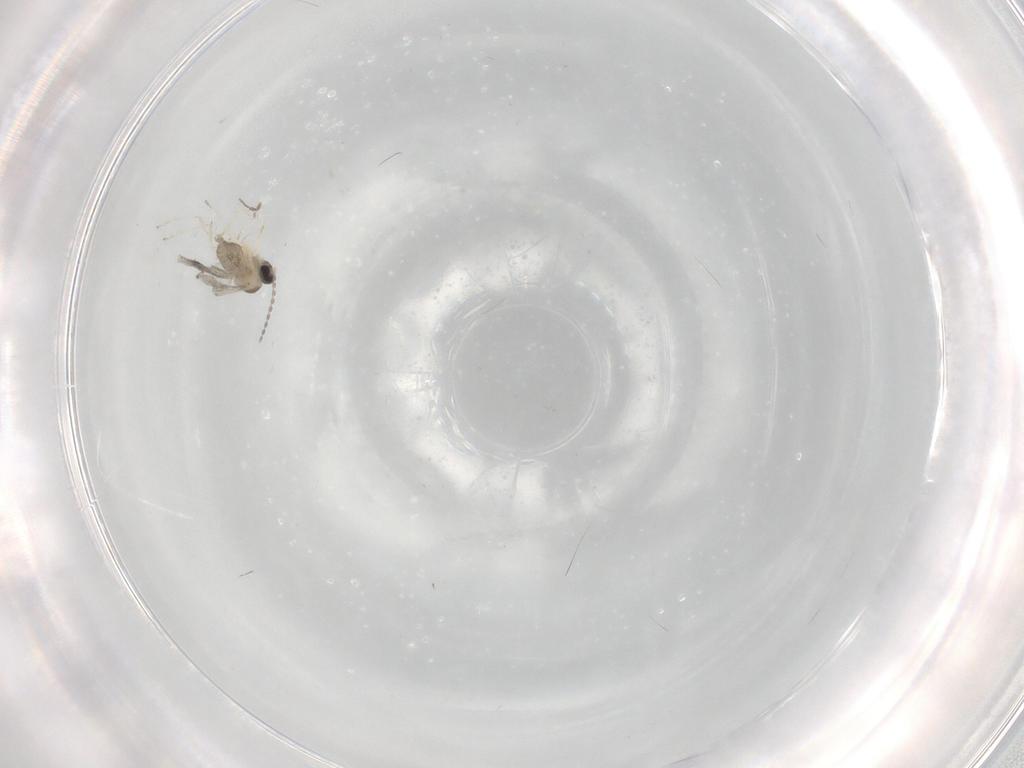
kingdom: Animalia
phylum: Arthropoda
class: Insecta
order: Diptera
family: Cecidomyiidae
